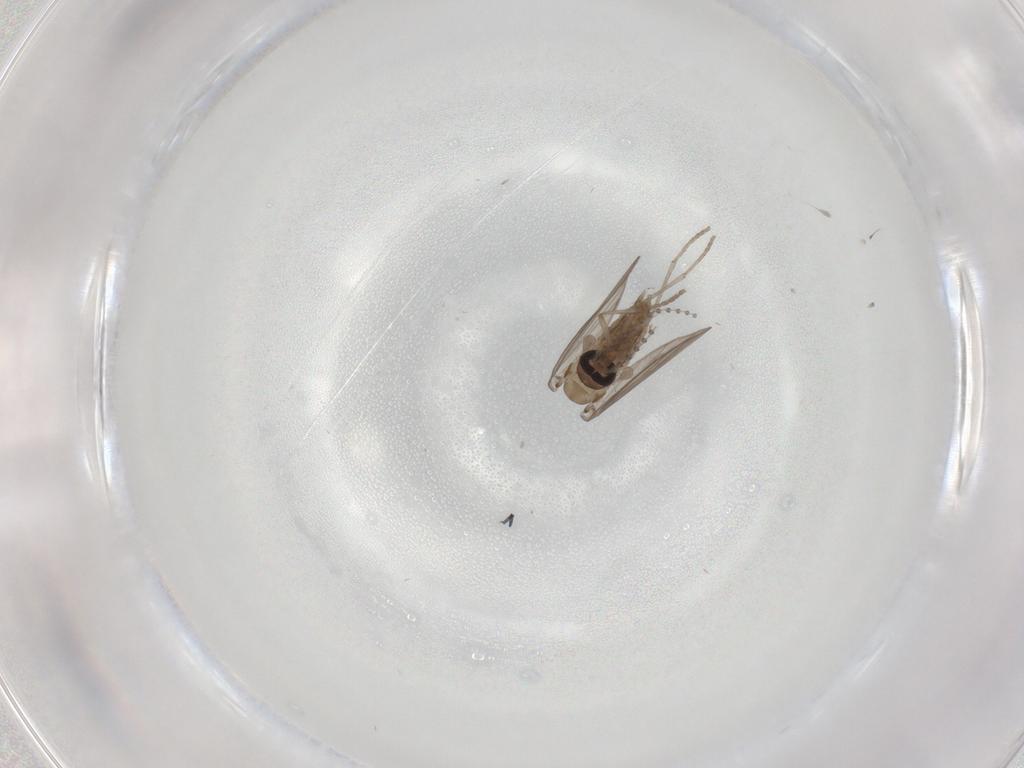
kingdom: Animalia
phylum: Arthropoda
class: Insecta
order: Diptera
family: Psychodidae
